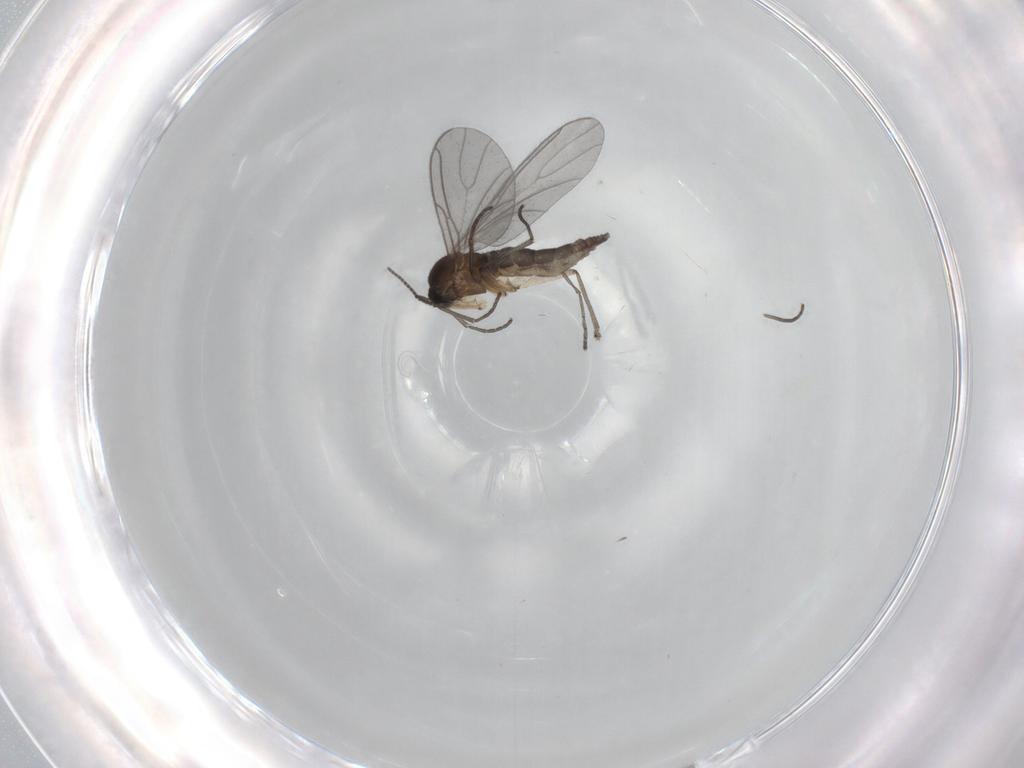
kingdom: Animalia
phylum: Arthropoda
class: Insecta
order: Diptera
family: Sciaridae
